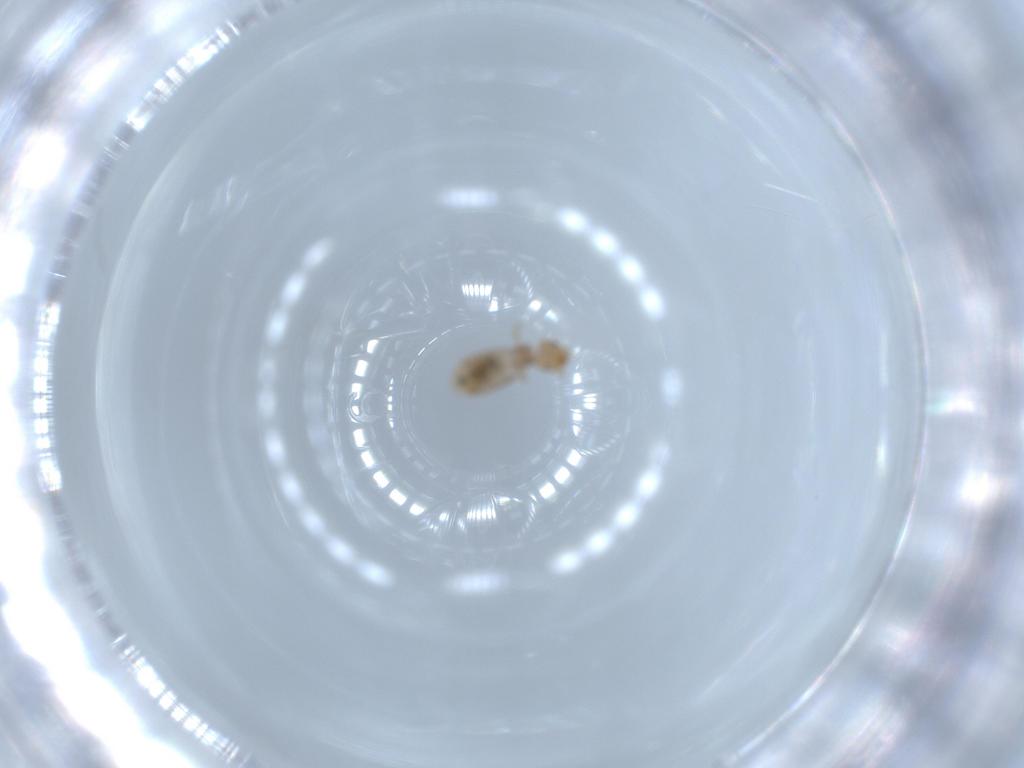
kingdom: Animalia
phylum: Arthropoda
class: Insecta
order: Psocodea
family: Liposcelididae
